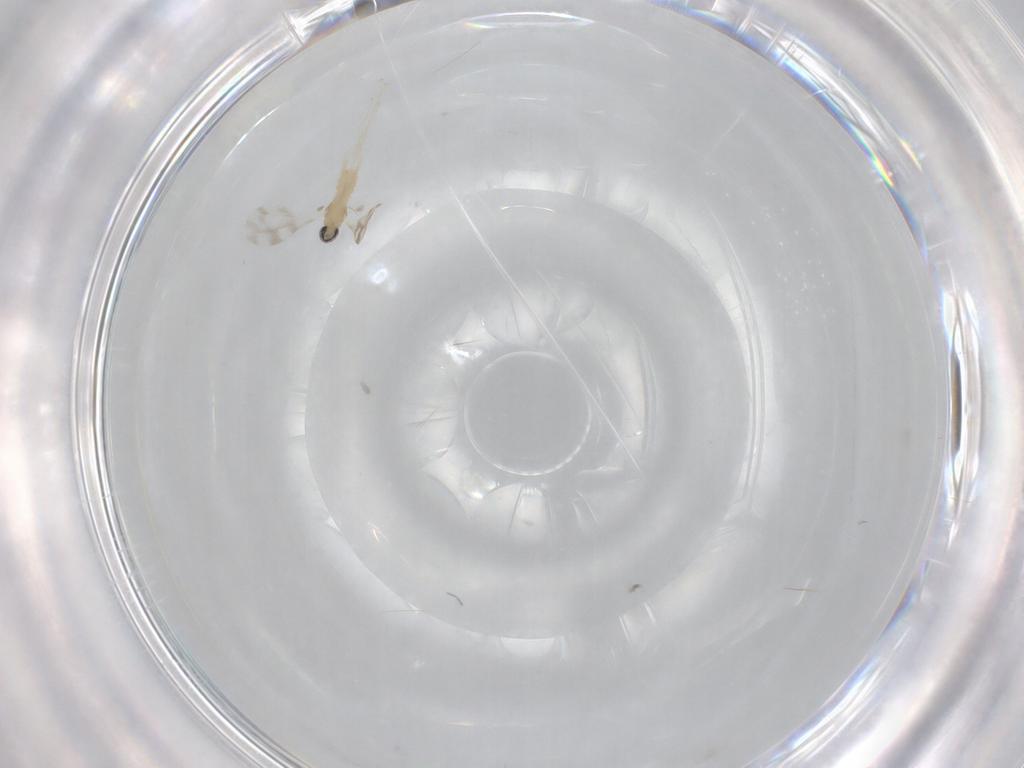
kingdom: Animalia
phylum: Arthropoda
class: Insecta
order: Diptera
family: Cecidomyiidae
